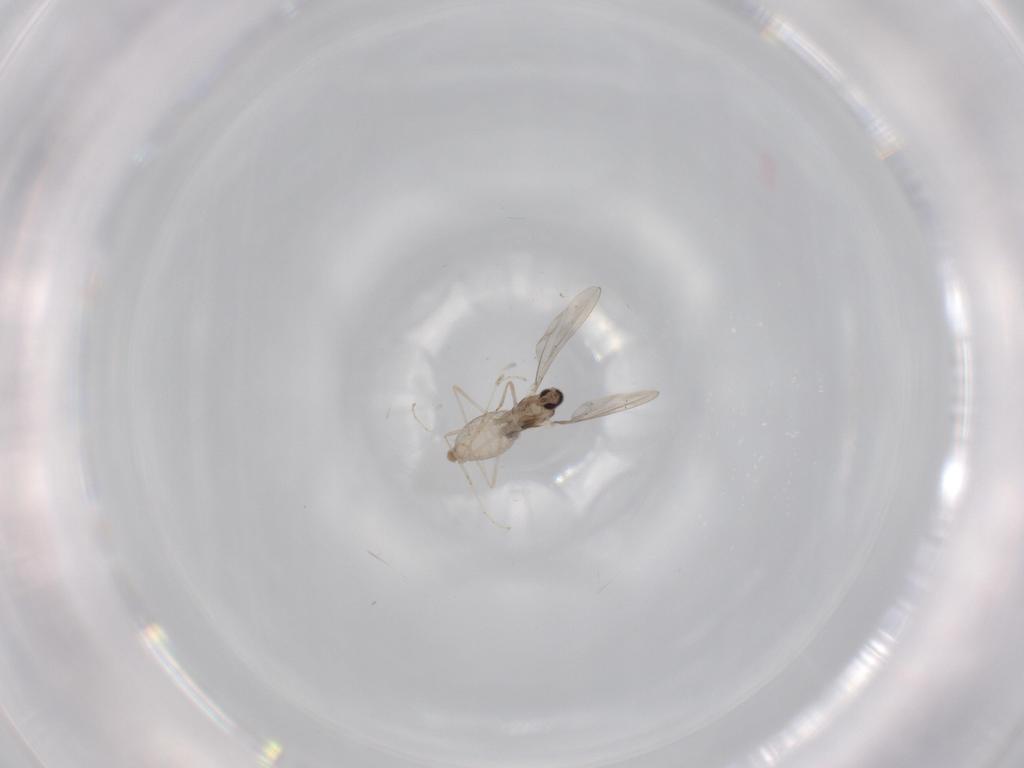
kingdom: Animalia
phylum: Arthropoda
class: Insecta
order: Diptera
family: Cecidomyiidae
